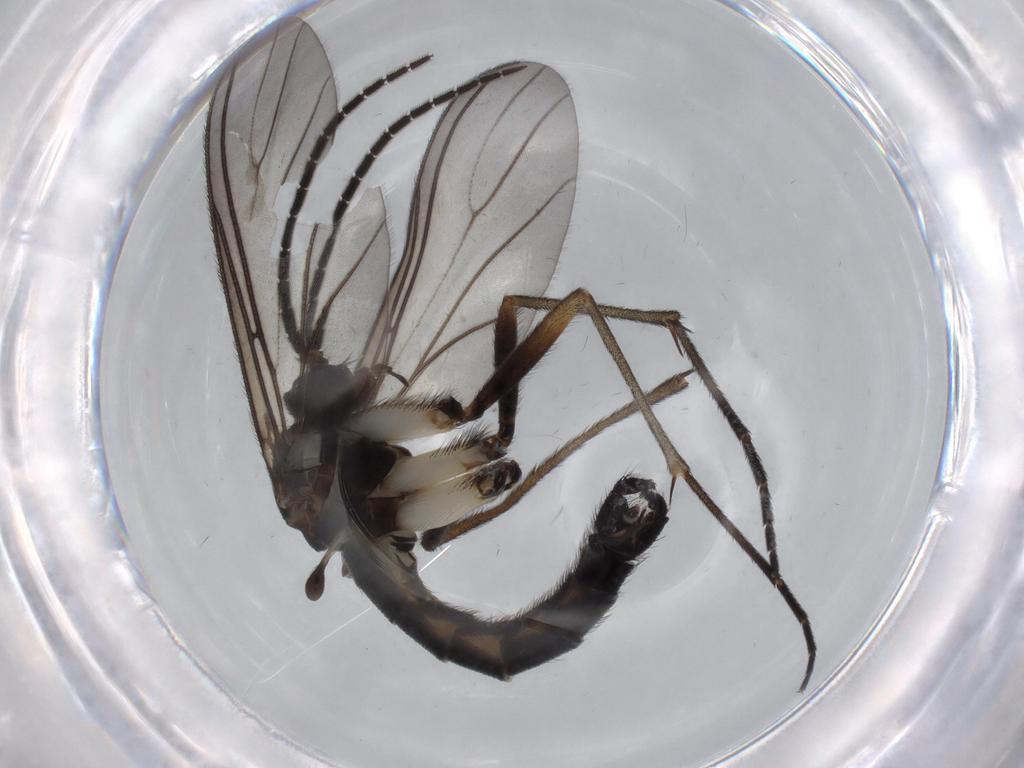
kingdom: Animalia
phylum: Arthropoda
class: Insecta
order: Diptera
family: Sciaridae
